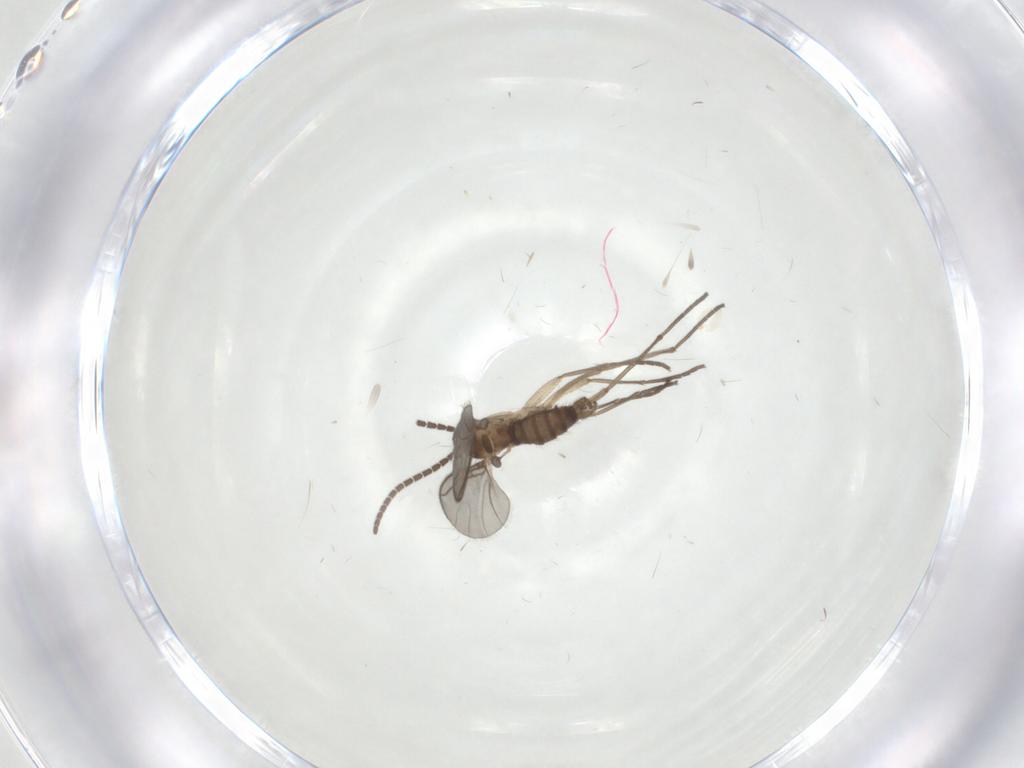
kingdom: Animalia
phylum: Arthropoda
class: Insecta
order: Diptera
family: Sciaridae
